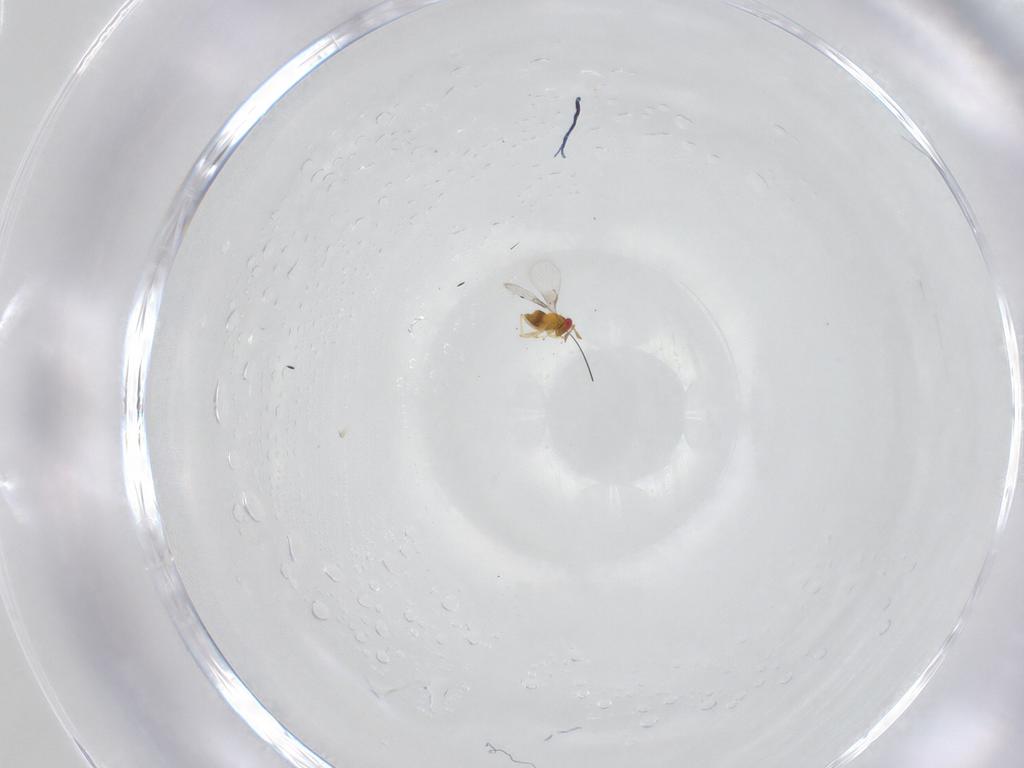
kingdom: Animalia
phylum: Arthropoda
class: Insecta
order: Hymenoptera
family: Trichogrammatidae
